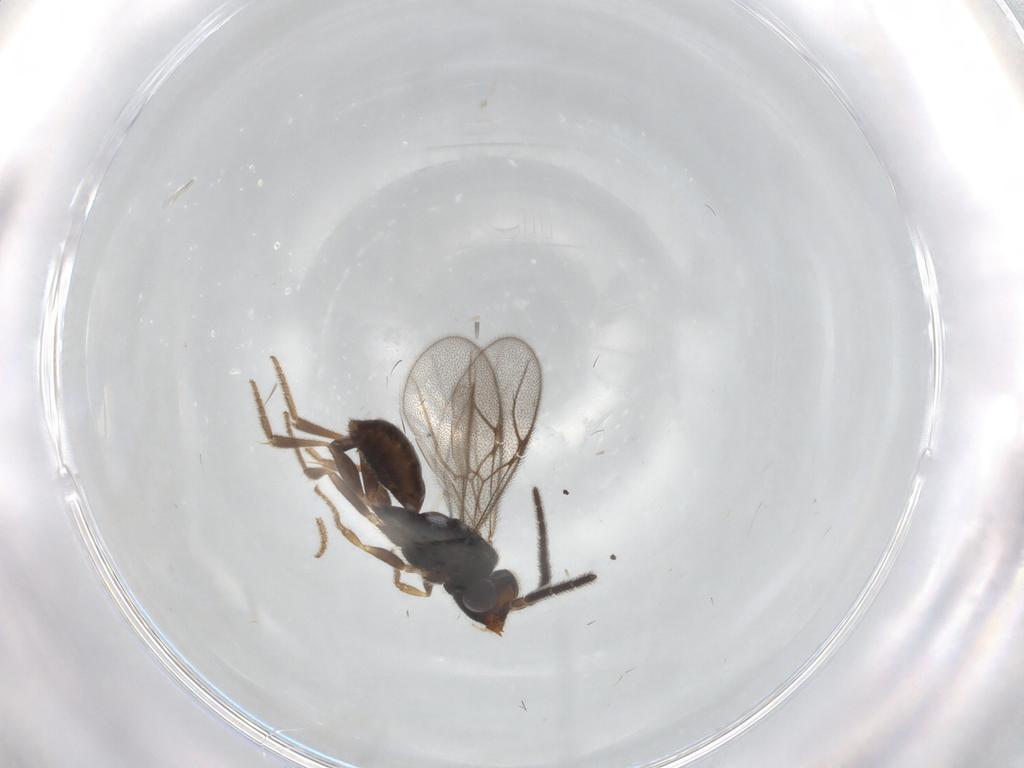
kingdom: Animalia
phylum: Arthropoda
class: Insecta
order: Hymenoptera
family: Dryinidae
